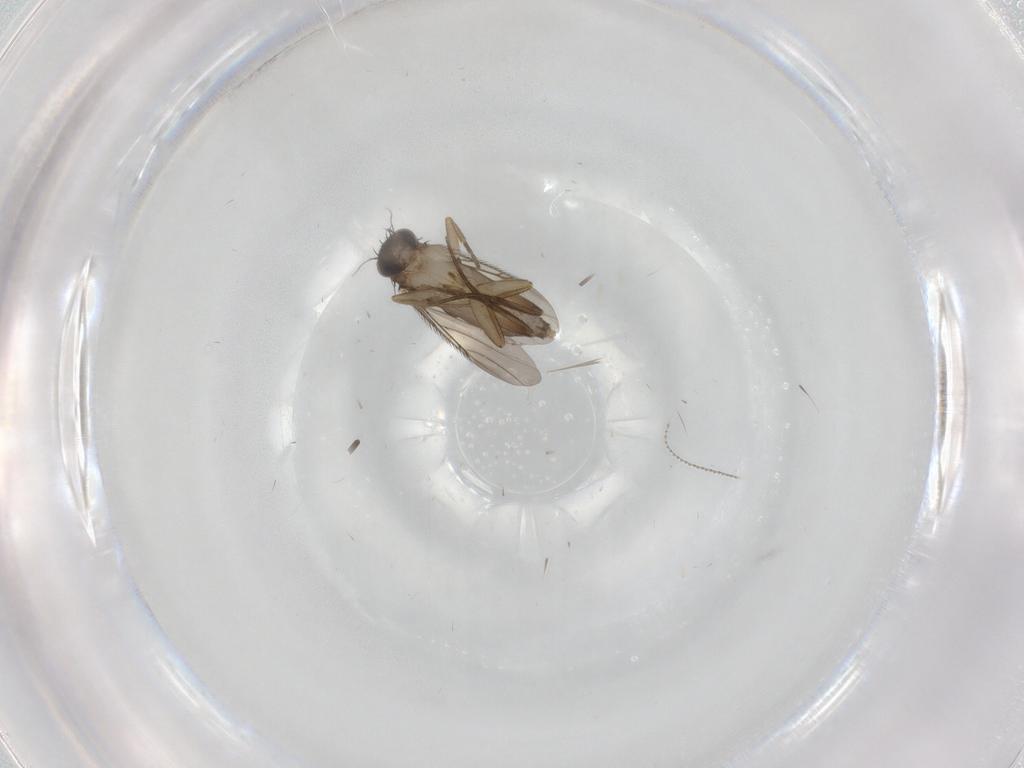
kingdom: Animalia
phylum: Arthropoda
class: Insecta
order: Diptera
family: Phoridae
